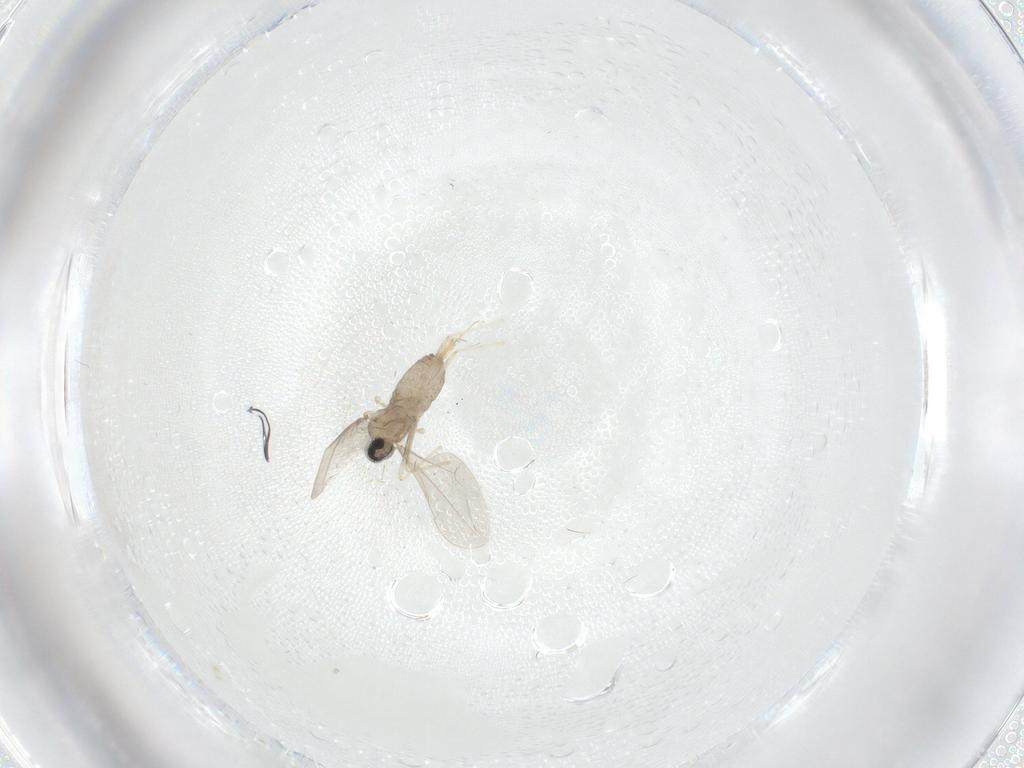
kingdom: Animalia
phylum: Arthropoda
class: Insecta
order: Diptera
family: Cecidomyiidae
